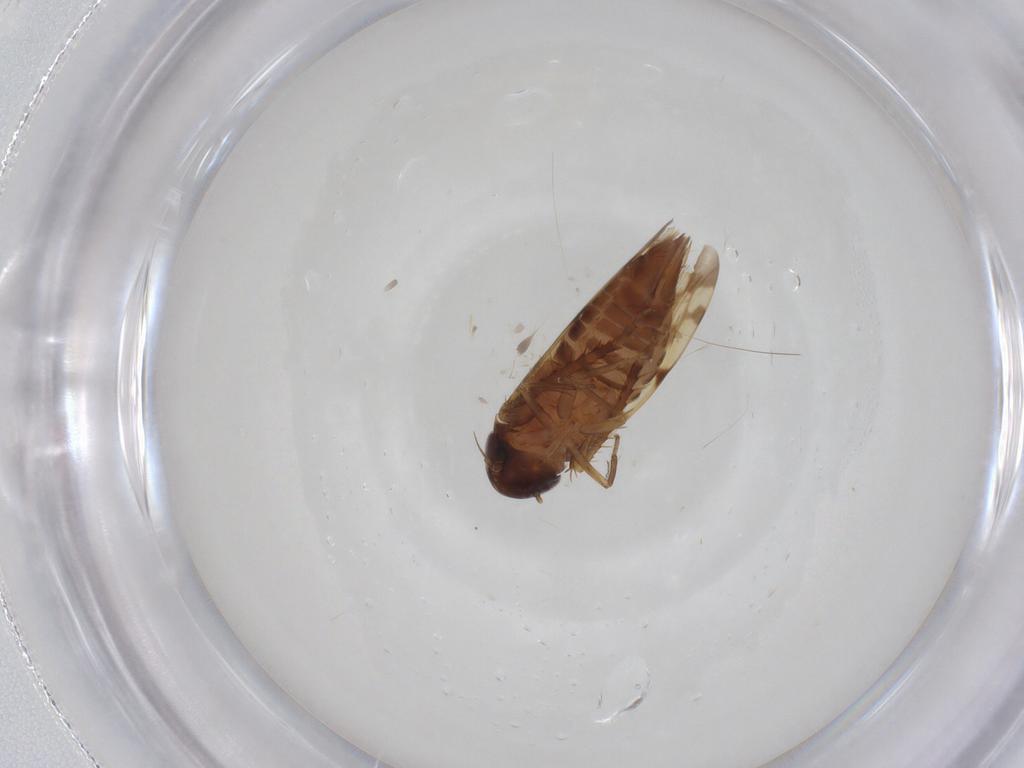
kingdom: Animalia
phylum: Arthropoda
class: Insecta
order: Hemiptera
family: Cicadellidae
